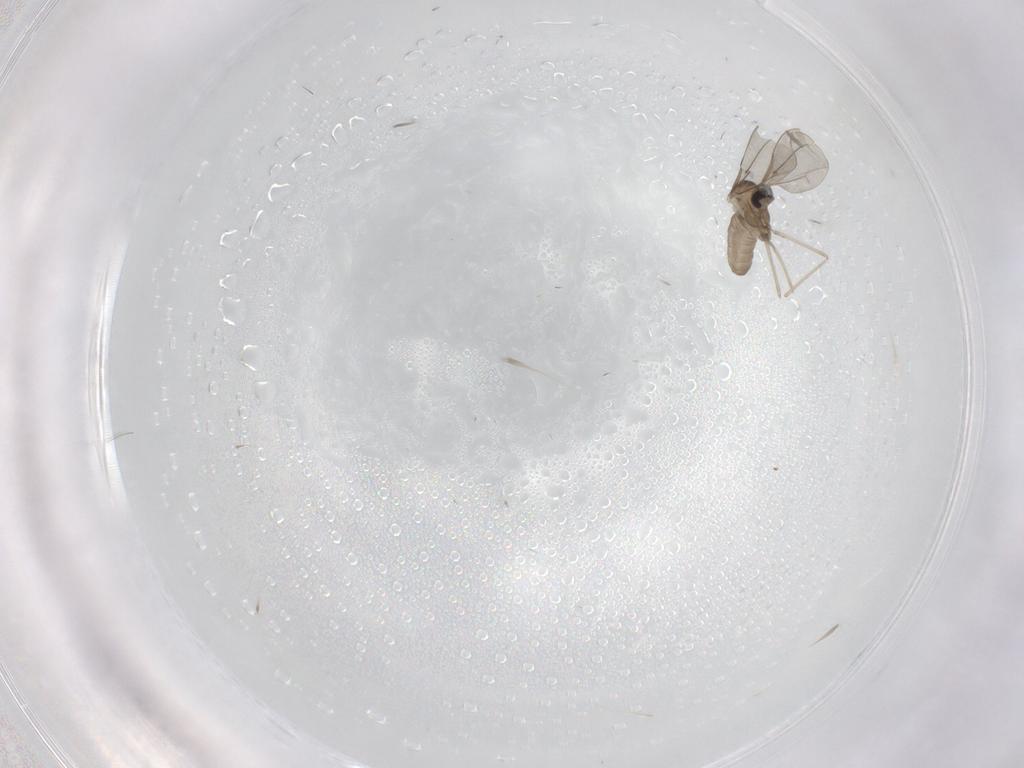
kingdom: Animalia
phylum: Arthropoda
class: Insecta
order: Diptera
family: Cecidomyiidae
